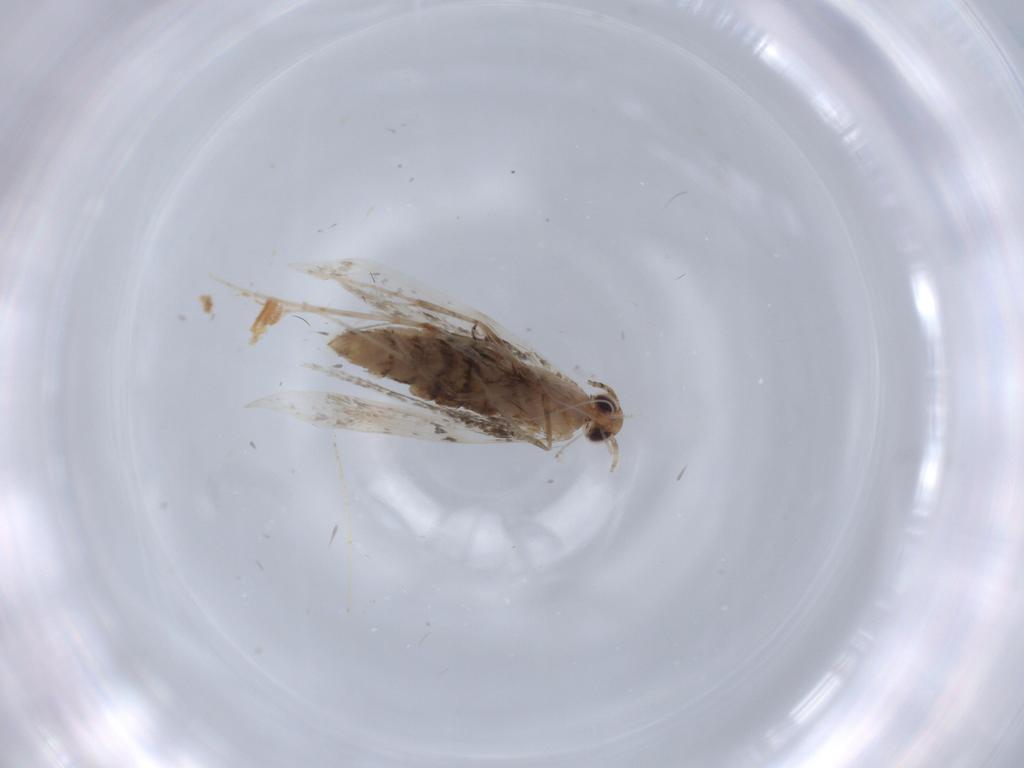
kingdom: Animalia
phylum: Arthropoda
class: Insecta
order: Lepidoptera
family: Gracillariidae
